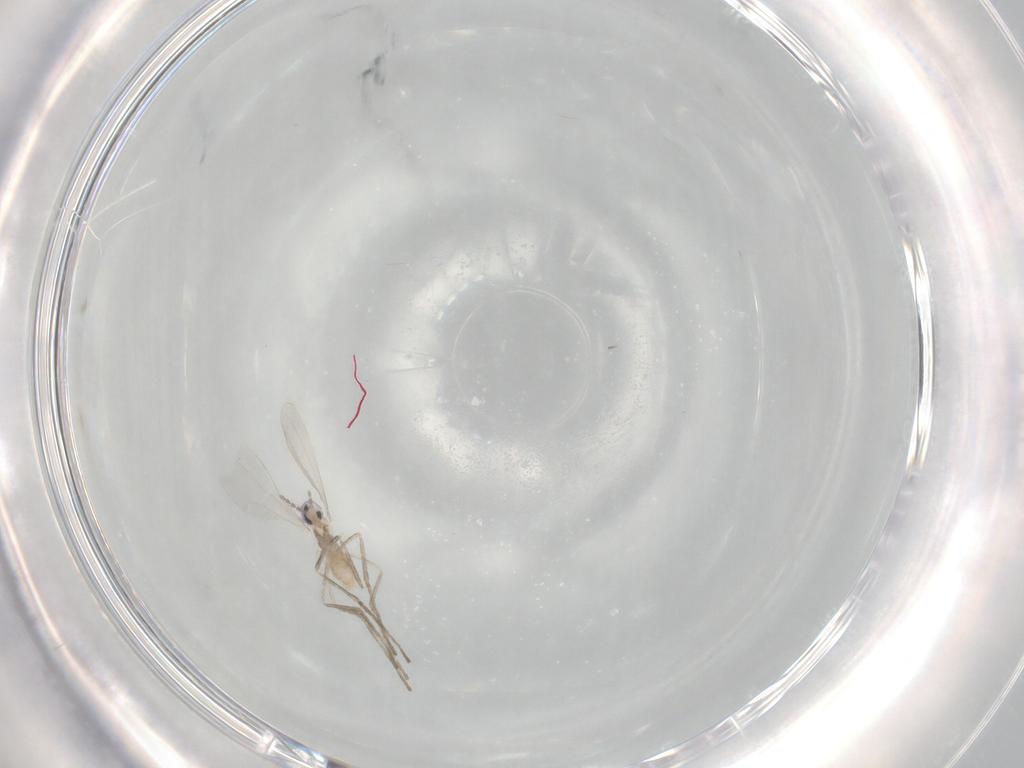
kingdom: Animalia
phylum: Arthropoda
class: Insecta
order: Diptera
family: Cecidomyiidae
